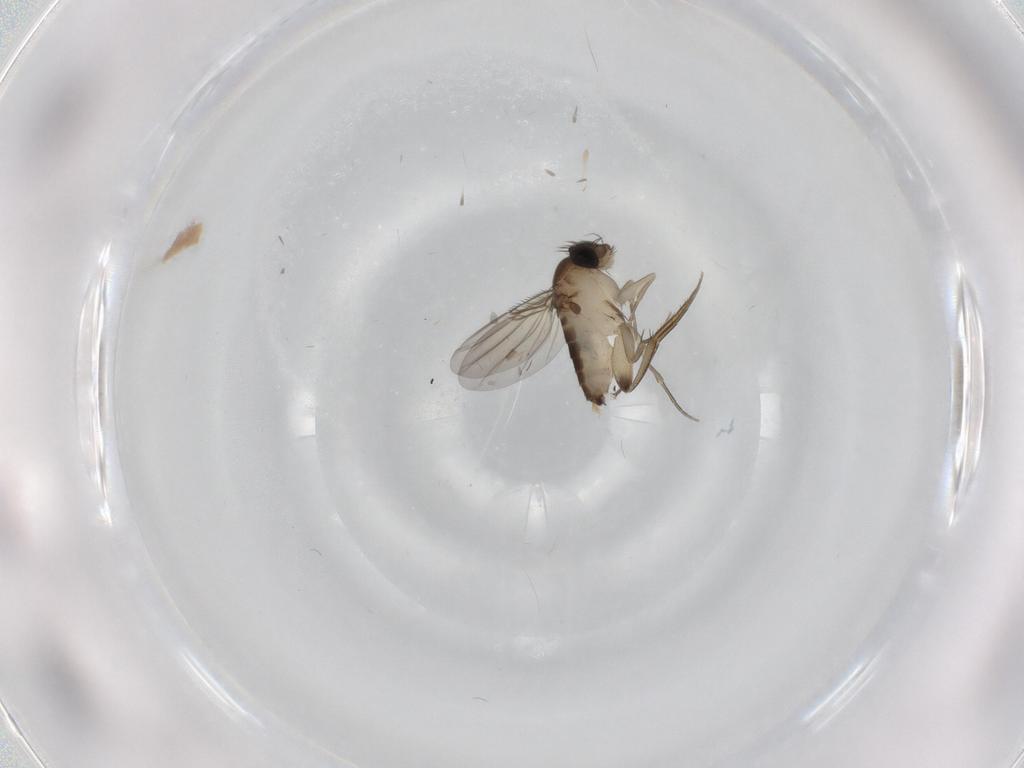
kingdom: Animalia
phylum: Arthropoda
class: Insecta
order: Diptera
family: Phoridae
